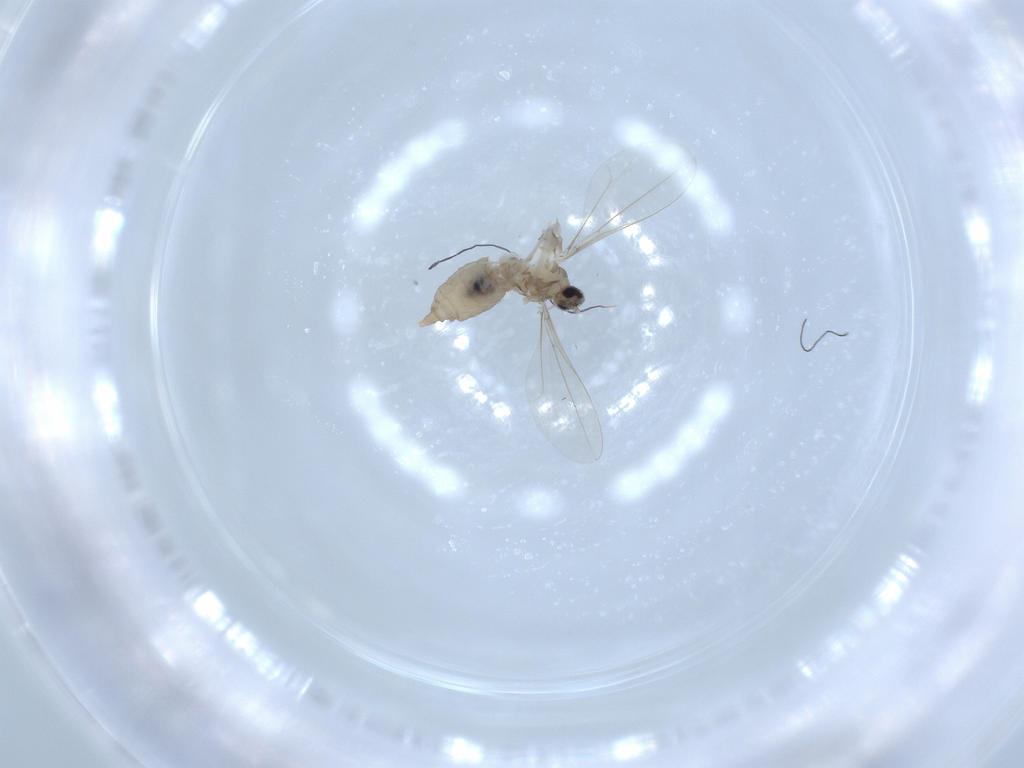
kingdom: Animalia
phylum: Arthropoda
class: Insecta
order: Diptera
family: Cecidomyiidae
